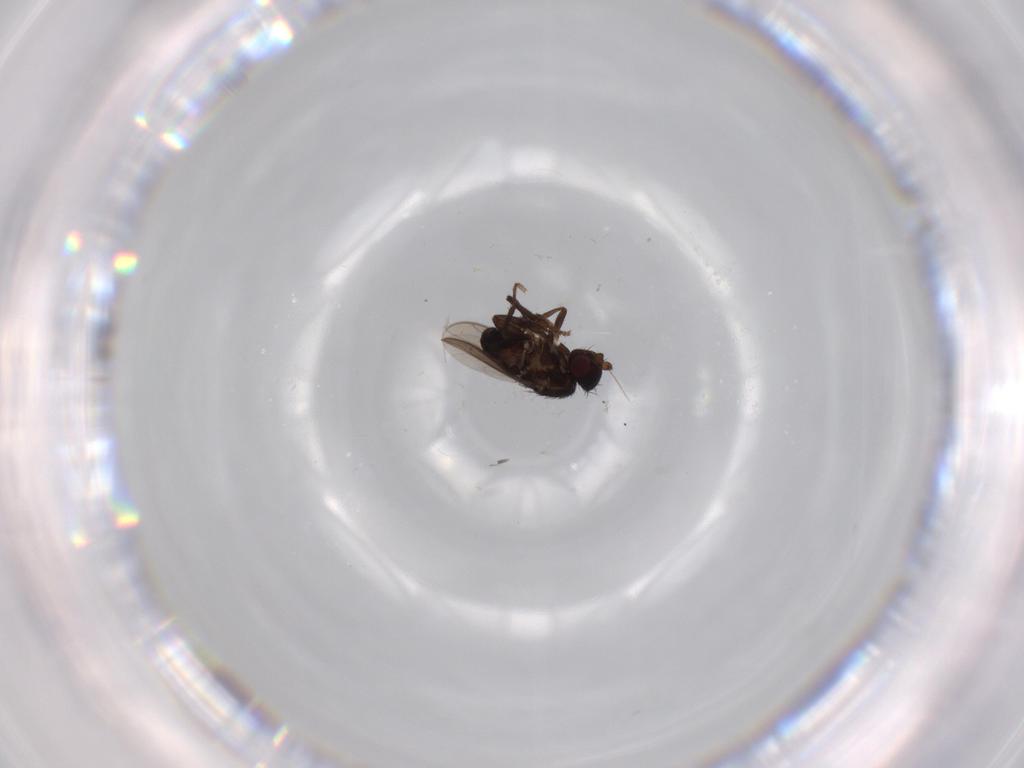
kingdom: Animalia
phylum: Arthropoda
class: Insecta
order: Diptera
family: Sphaeroceridae
